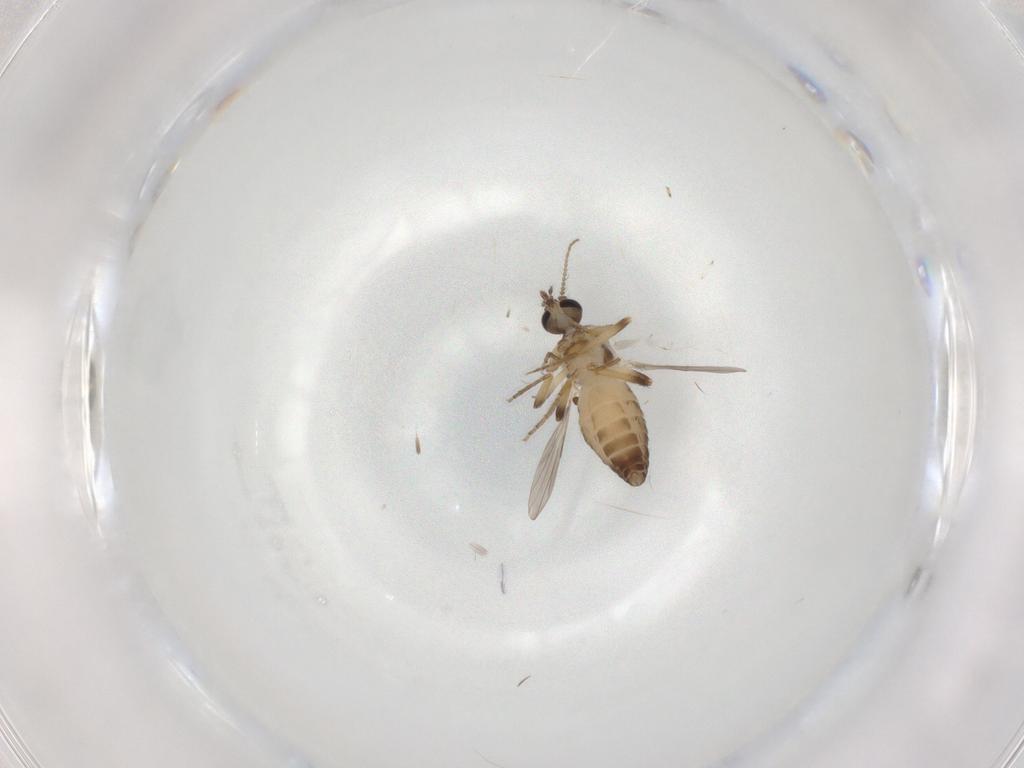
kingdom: Animalia
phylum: Arthropoda
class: Insecta
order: Diptera
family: Ceratopogonidae
